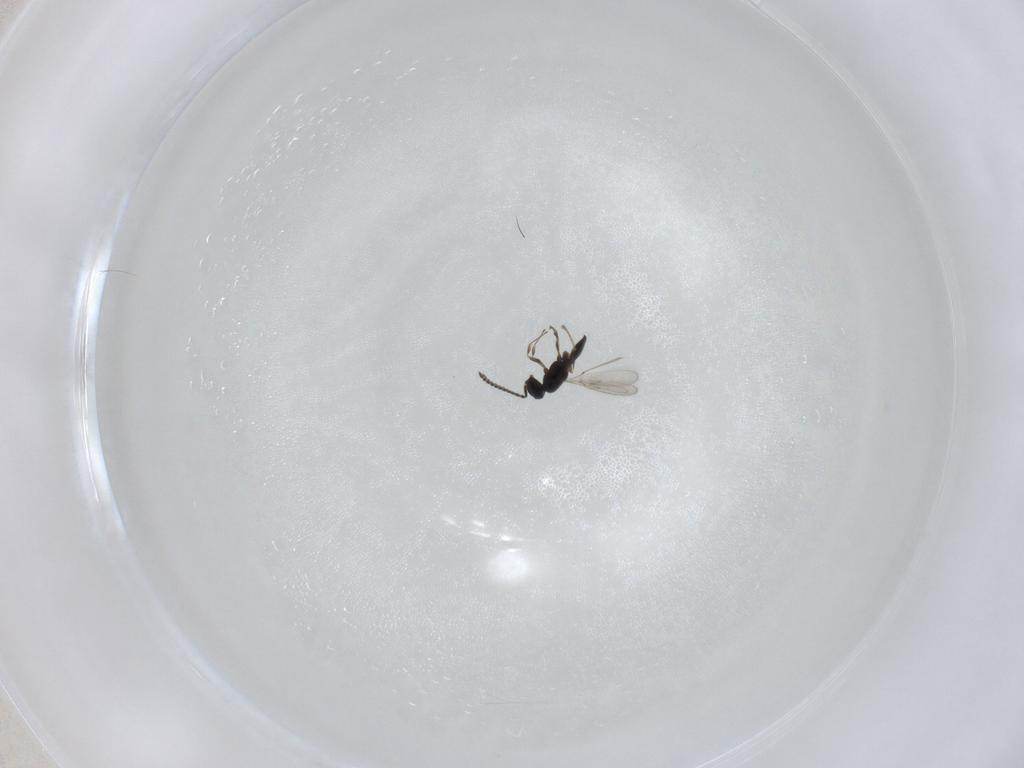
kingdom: Animalia
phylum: Arthropoda
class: Insecta
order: Hymenoptera
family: Scelionidae
